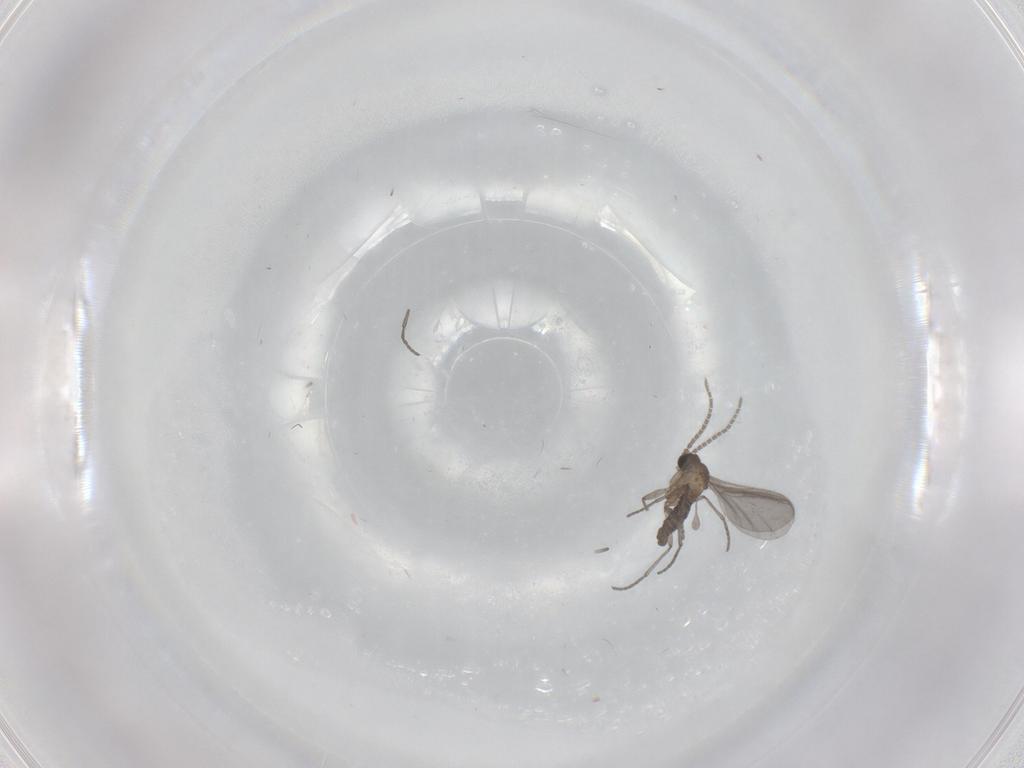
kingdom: Animalia
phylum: Arthropoda
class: Insecta
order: Diptera
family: Sciaridae
